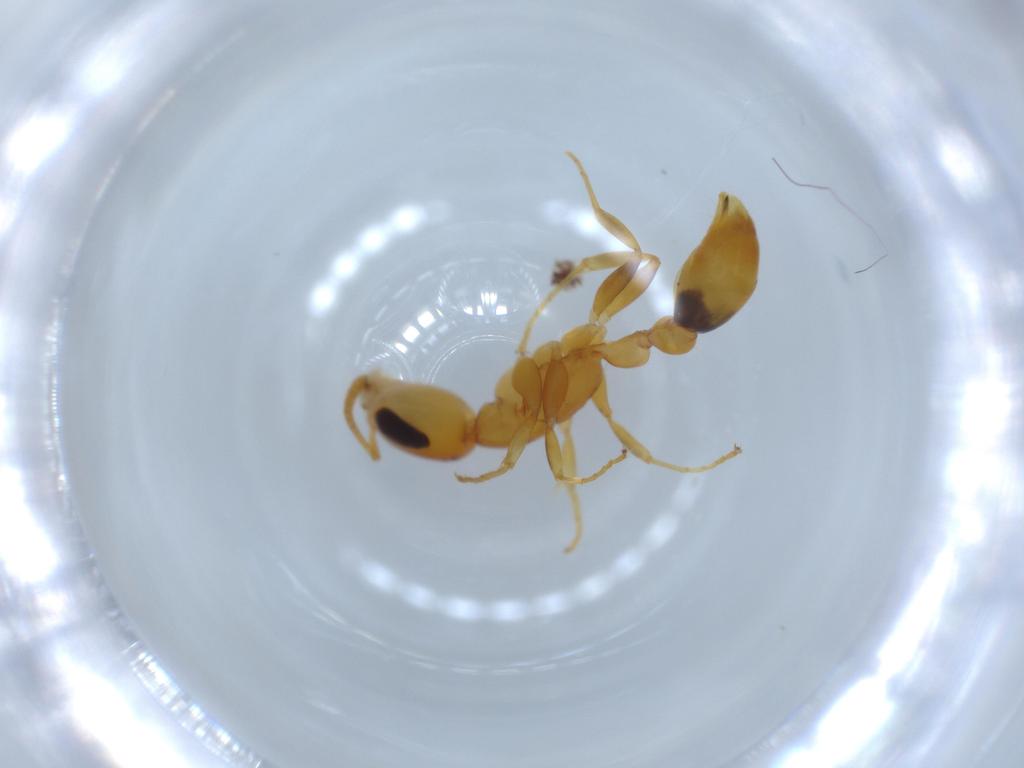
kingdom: Animalia
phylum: Arthropoda
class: Insecta
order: Hymenoptera
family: Formicidae
